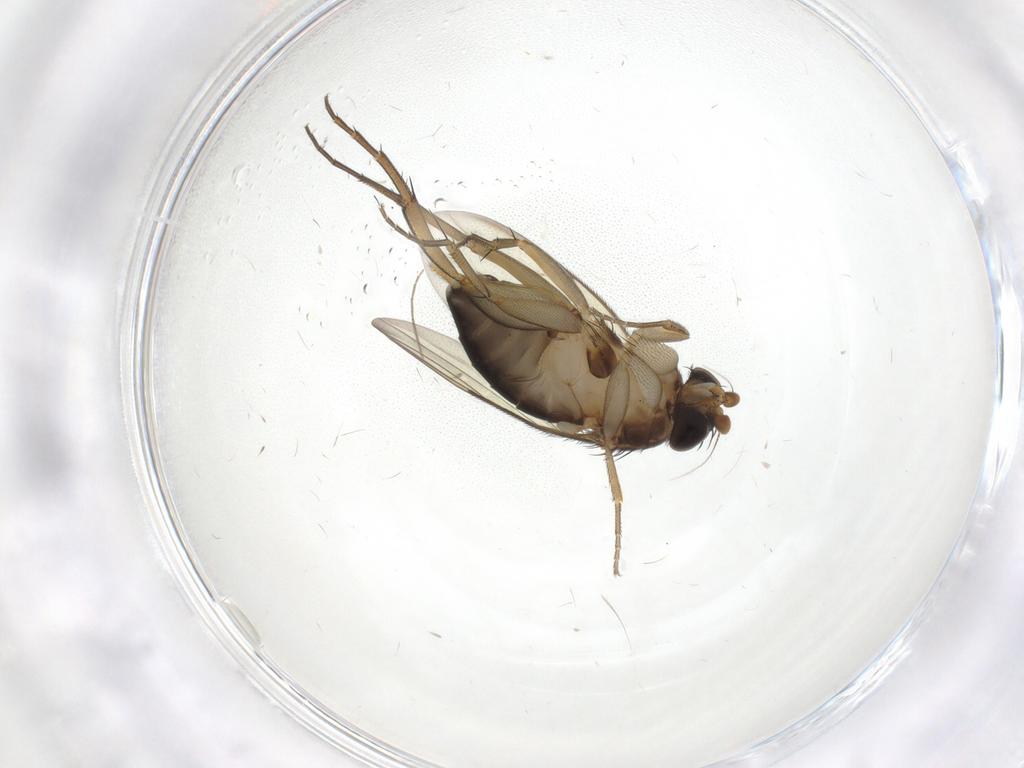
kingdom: Animalia
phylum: Arthropoda
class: Insecta
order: Diptera
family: Phoridae
